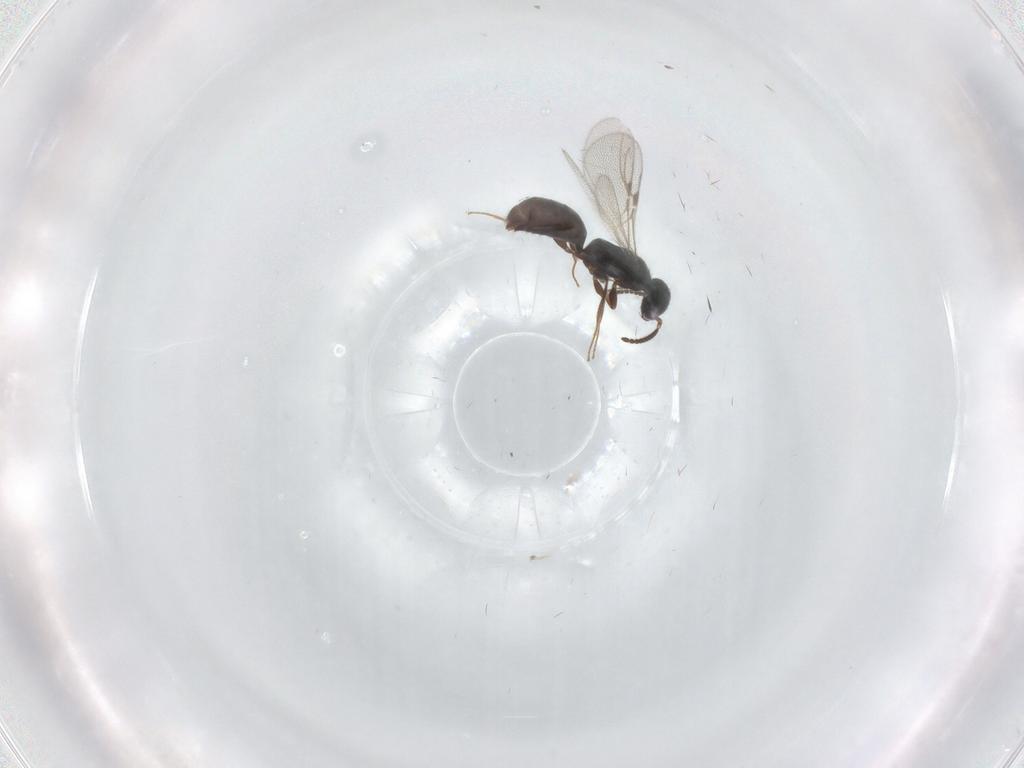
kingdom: Animalia
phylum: Arthropoda
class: Insecta
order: Hymenoptera
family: Bethylidae
